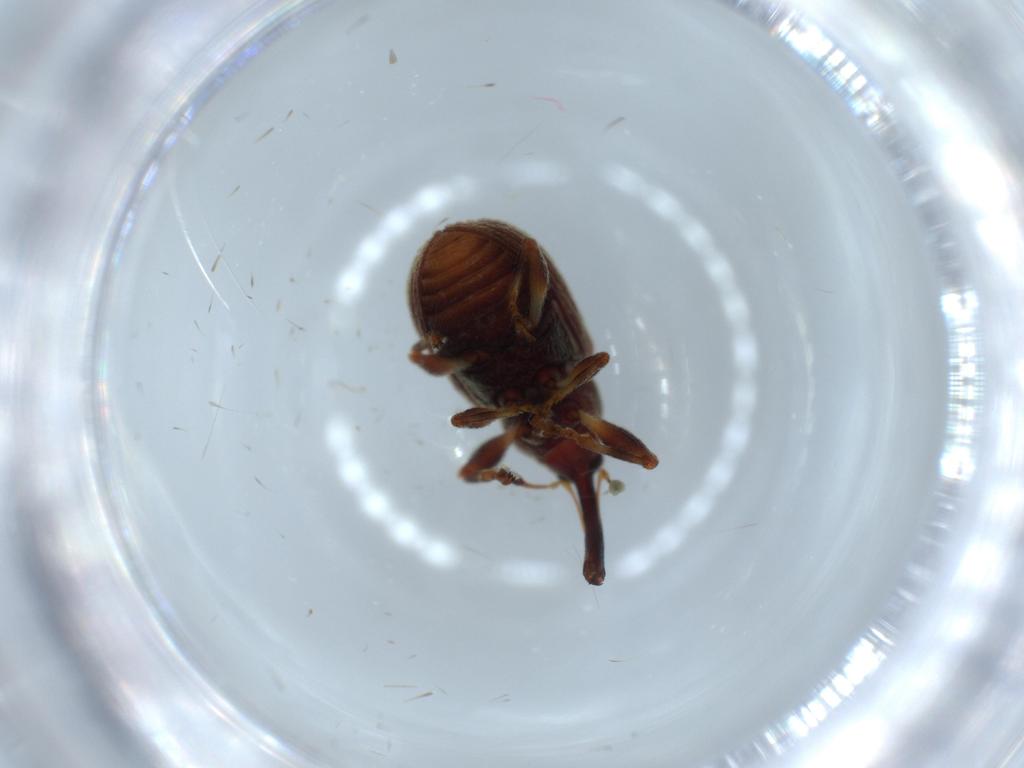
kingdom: Animalia
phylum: Arthropoda
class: Insecta
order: Coleoptera
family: Curculionidae
